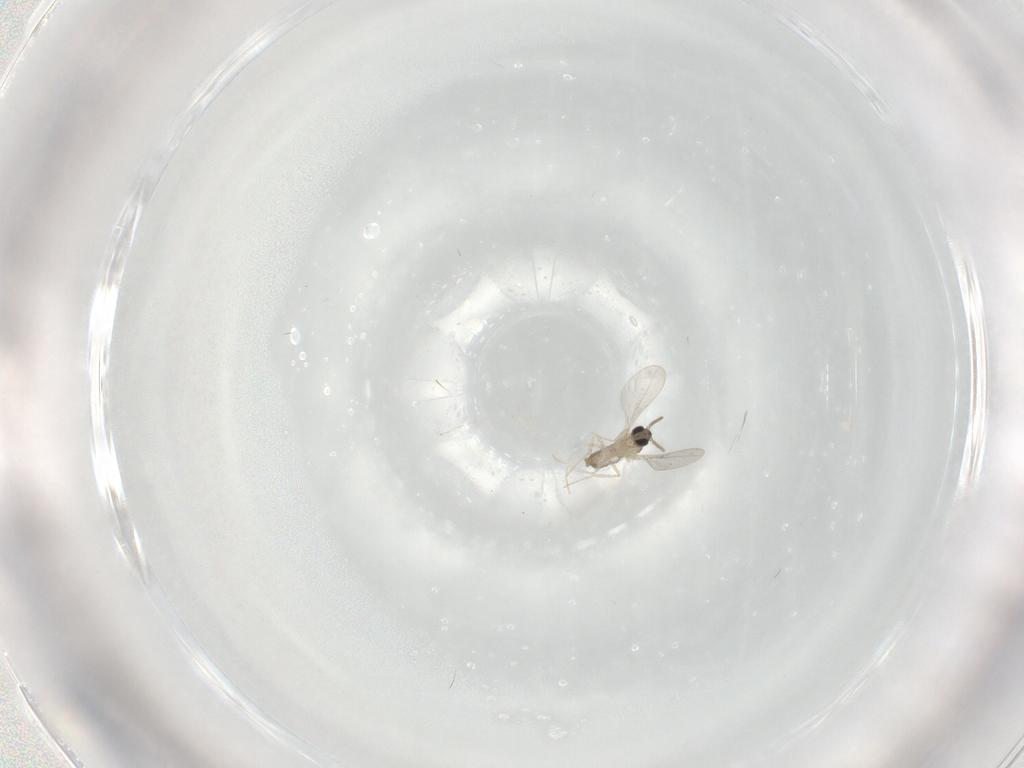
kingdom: Animalia
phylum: Arthropoda
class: Insecta
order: Diptera
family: Cecidomyiidae
